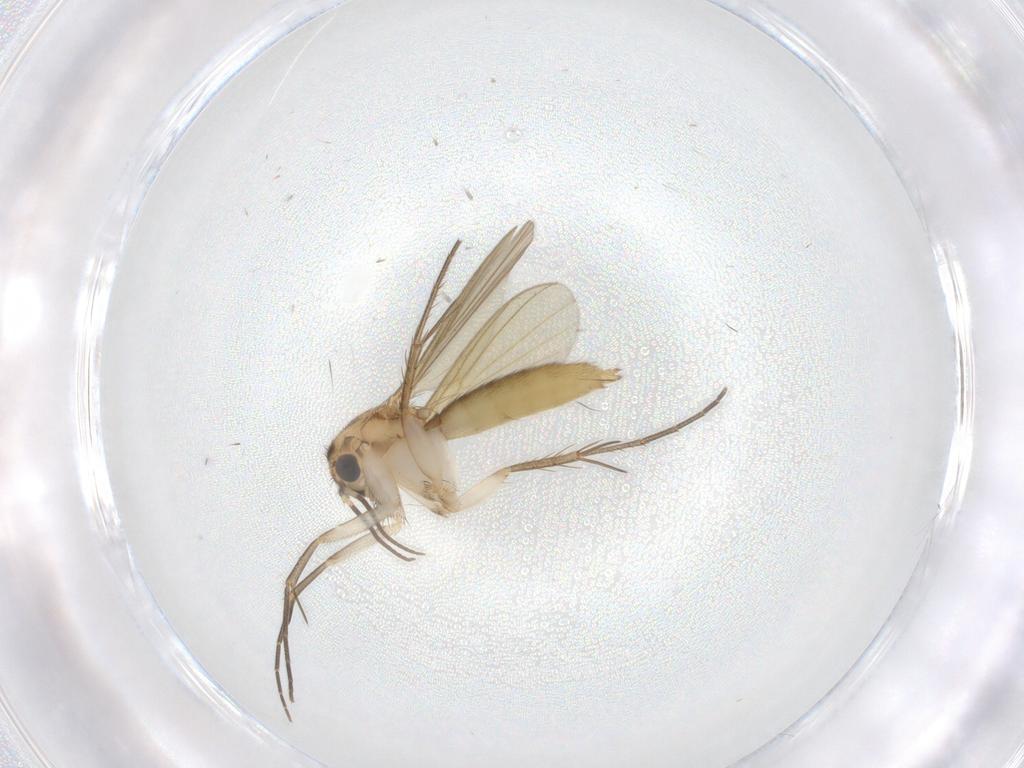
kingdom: Animalia
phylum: Arthropoda
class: Insecta
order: Diptera
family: Mycetophilidae
